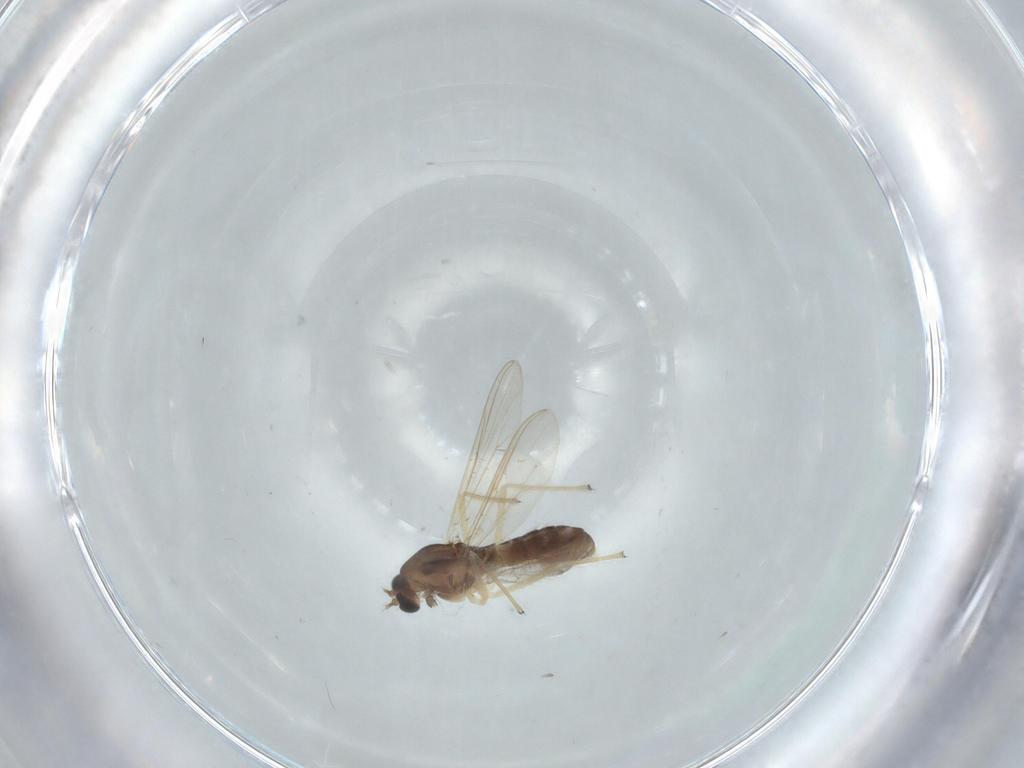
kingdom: Animalia
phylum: Arthropoda
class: Insecta
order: Diptera
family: Chironomidae
